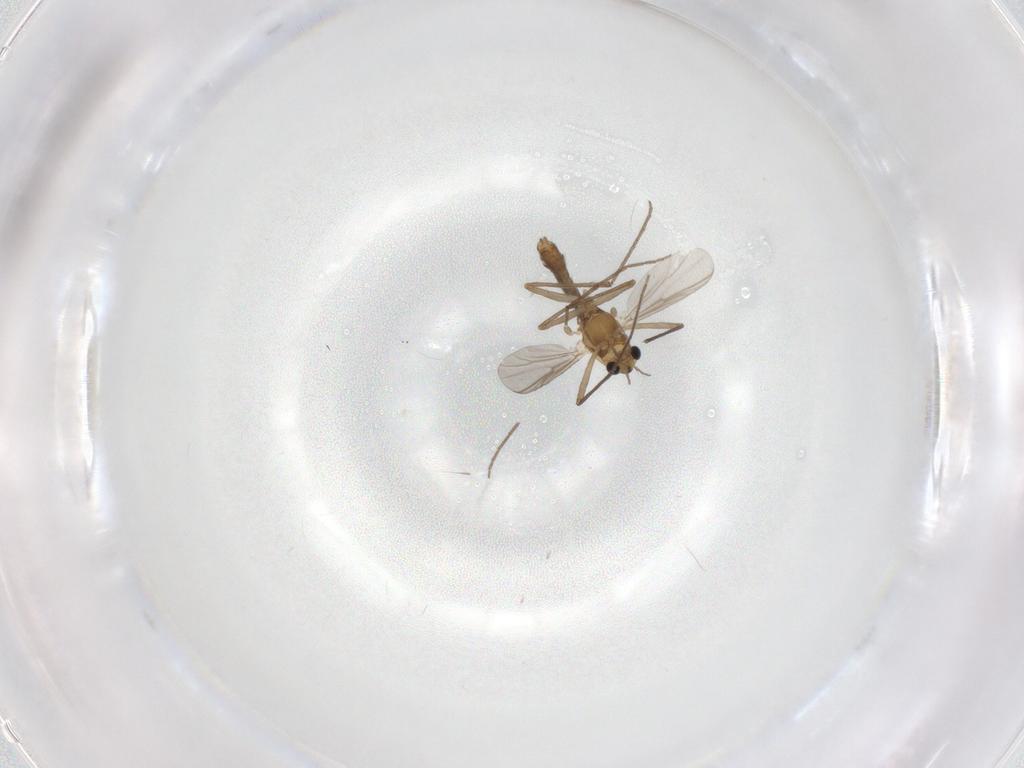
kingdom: Animalia
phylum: Arthropoda
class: Insecta
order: Diptera
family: Chironomidae
